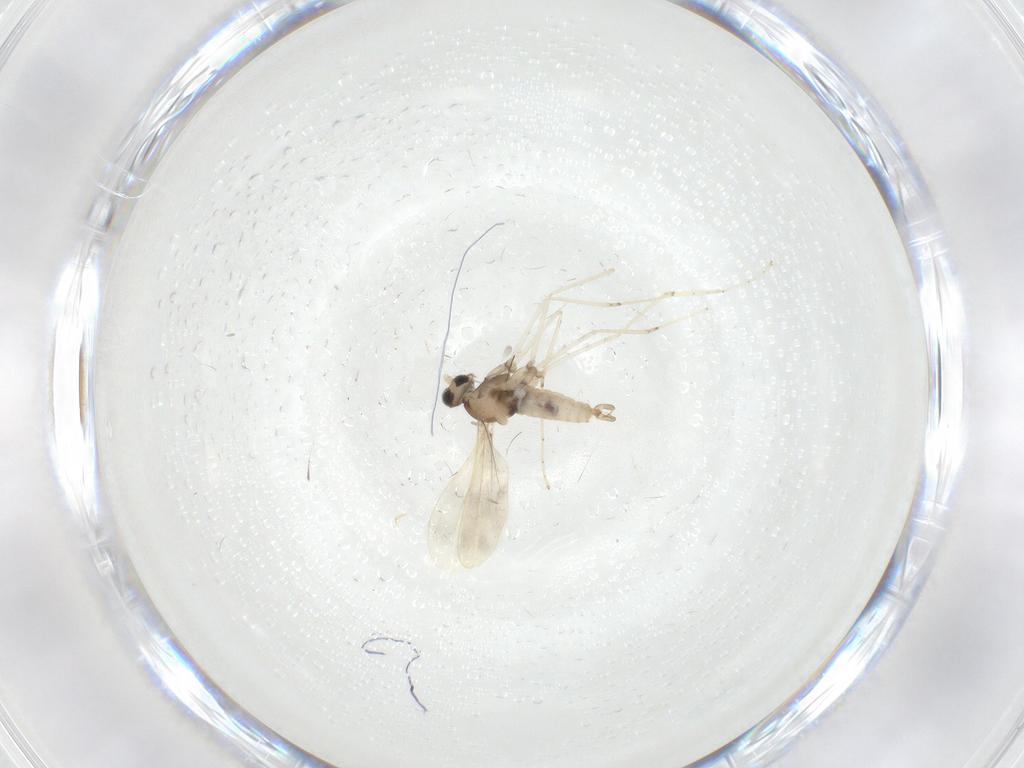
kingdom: Animalia
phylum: Arthropoda
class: Insecta
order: Diptera
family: Chironomidae
